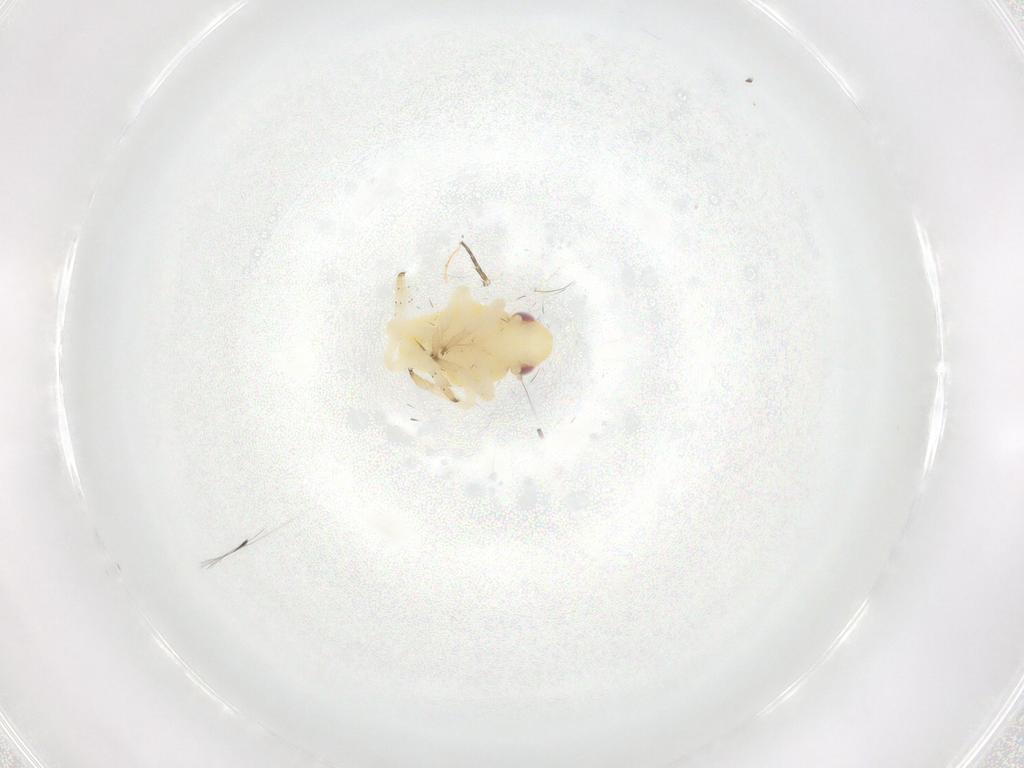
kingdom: Animalia
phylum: Arthropoda
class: Insecta
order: Hemiptera
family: Caliscelidae
